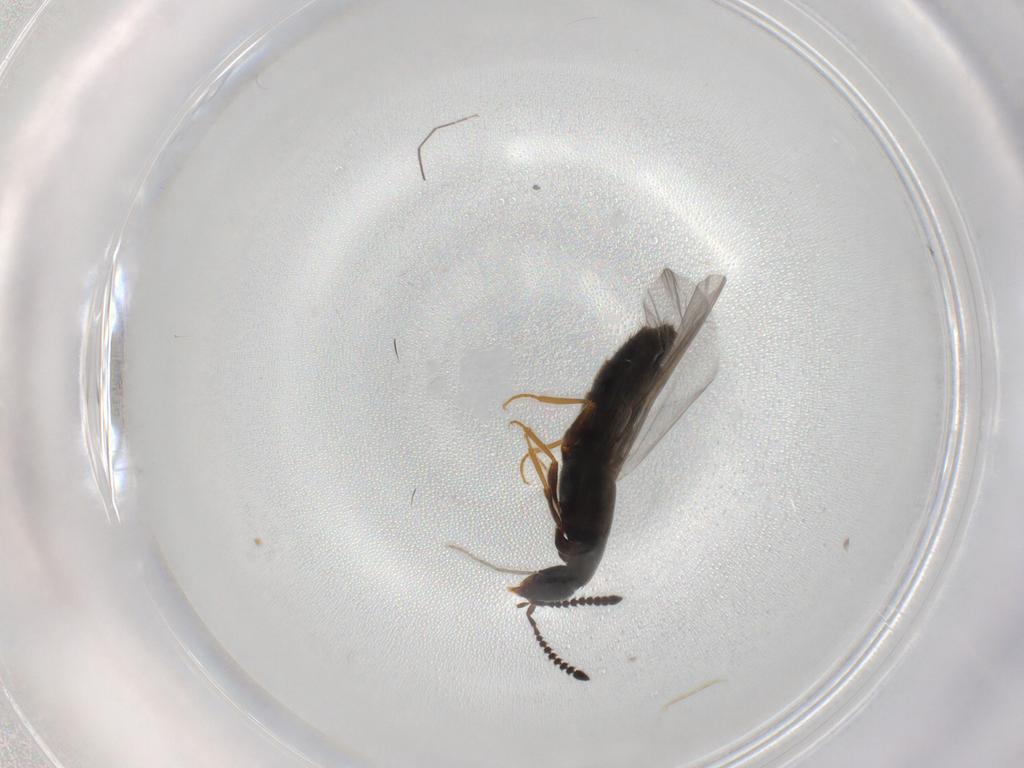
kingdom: Animalia
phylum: Arthropoda
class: Insecta
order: Coleoptera
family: Staphylinidae
